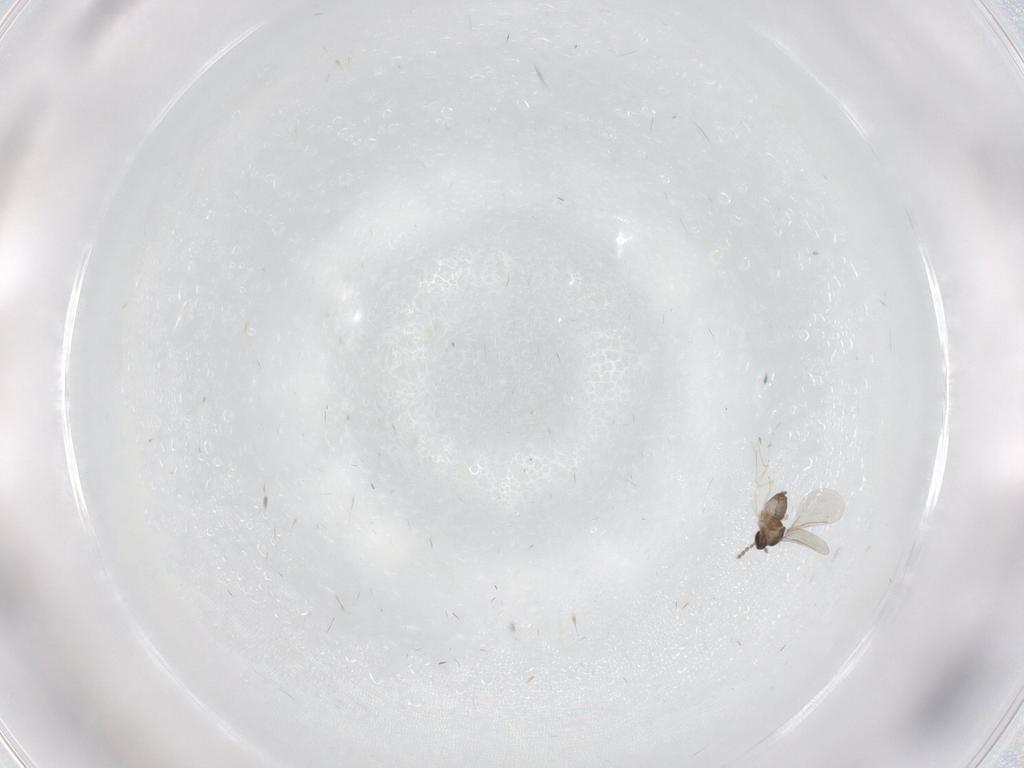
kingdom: Animalia
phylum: Arthropoda
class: Insecta
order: Diptera
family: Cecidomyiidae
